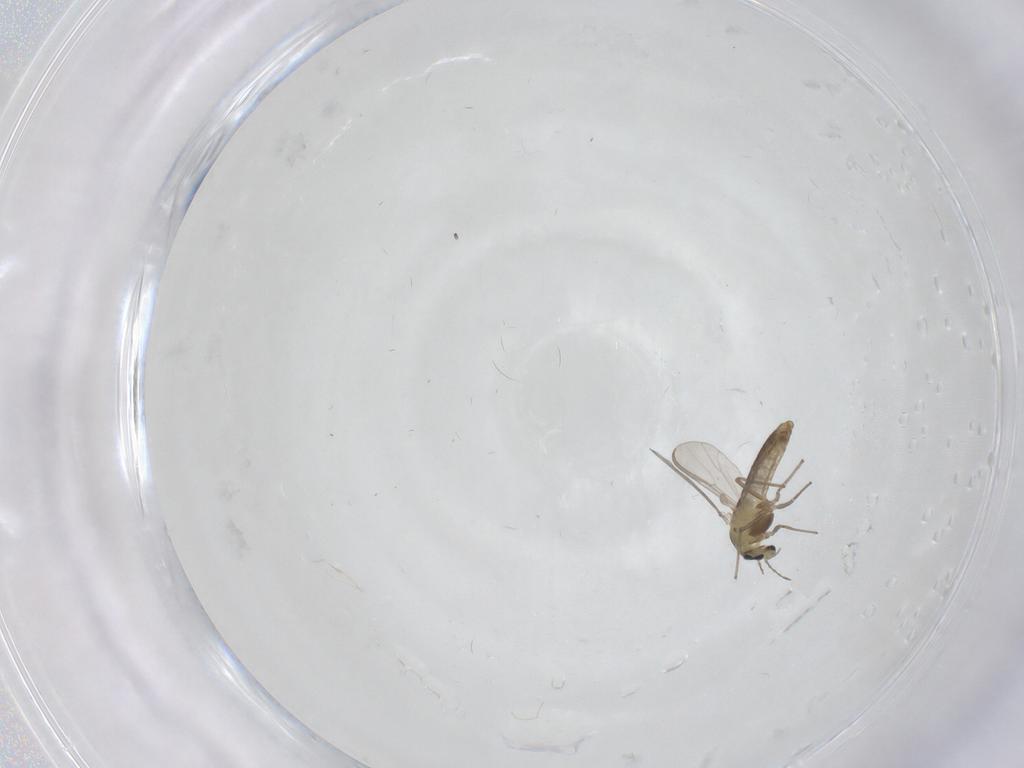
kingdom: Animalia
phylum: Arthropoda
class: Insecta
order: Diptera
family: Chironomidae
